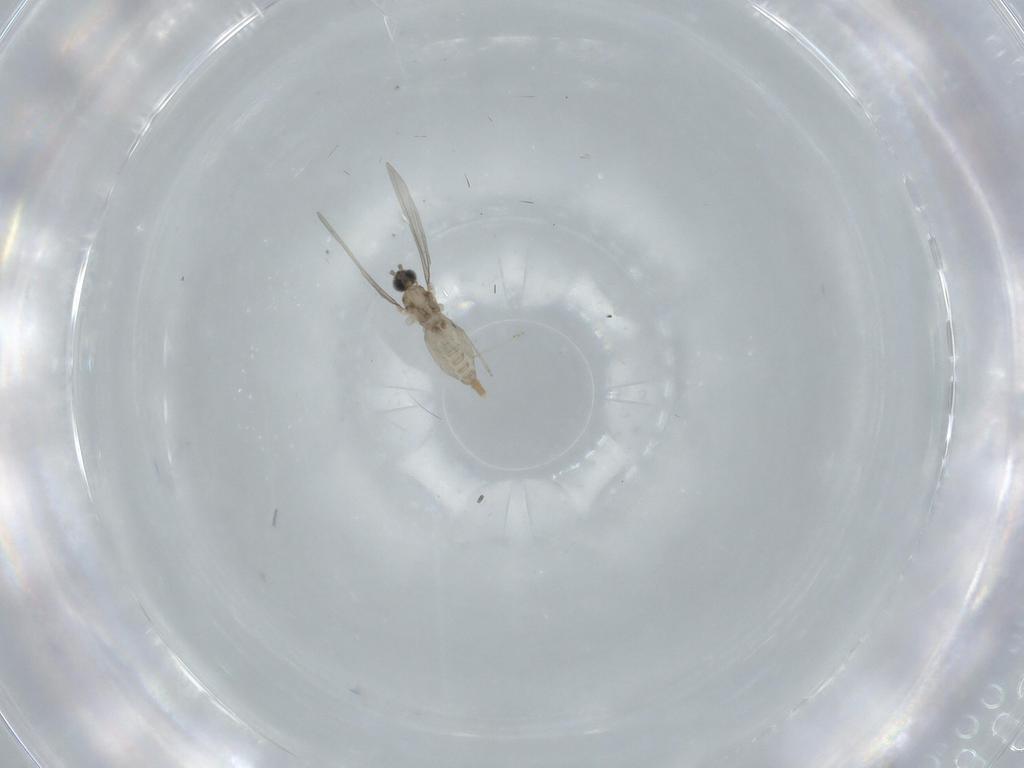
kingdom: Animalia
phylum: Arthropoda
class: Insecta
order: Diptera
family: Cecidomyiidae
